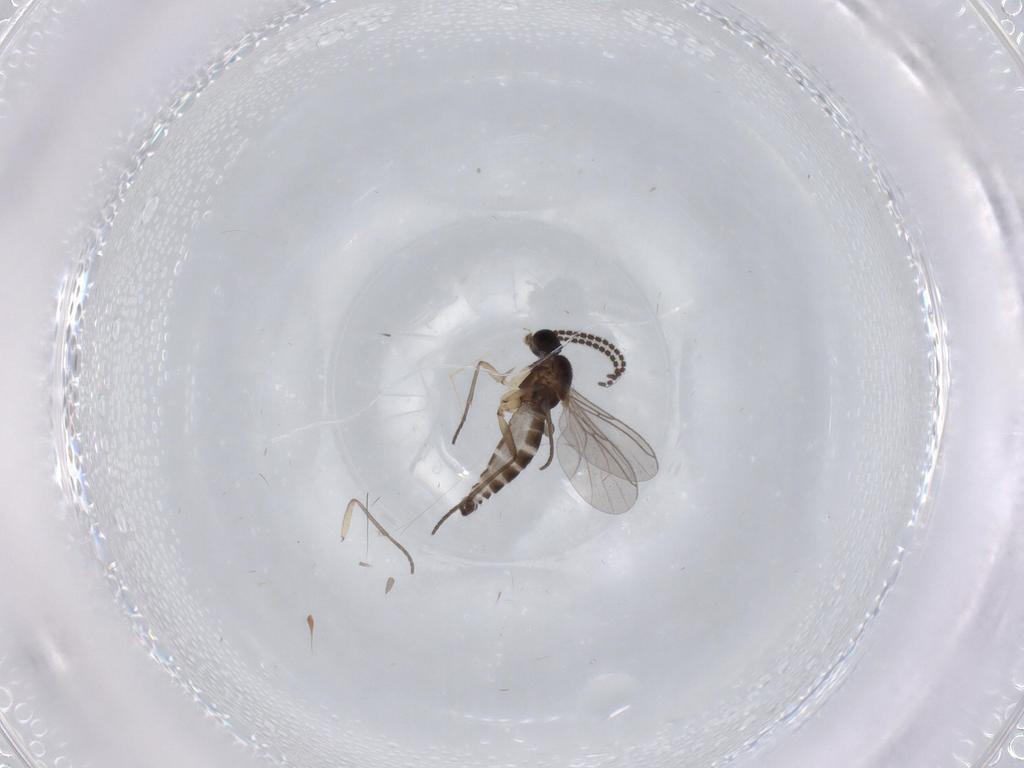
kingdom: Animalia
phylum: Arthropoda
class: Insecta
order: Diptera
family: Sciaridae
